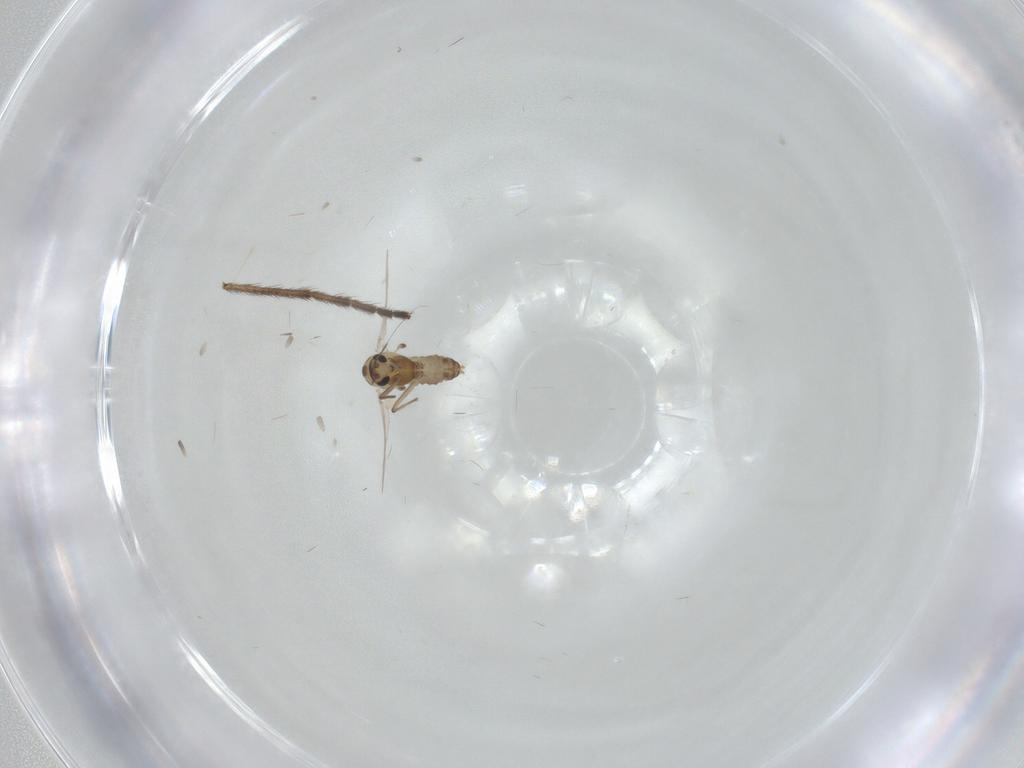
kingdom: Animalia
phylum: Arthropoda
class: Insecta
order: Diptera
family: Chironomidae
